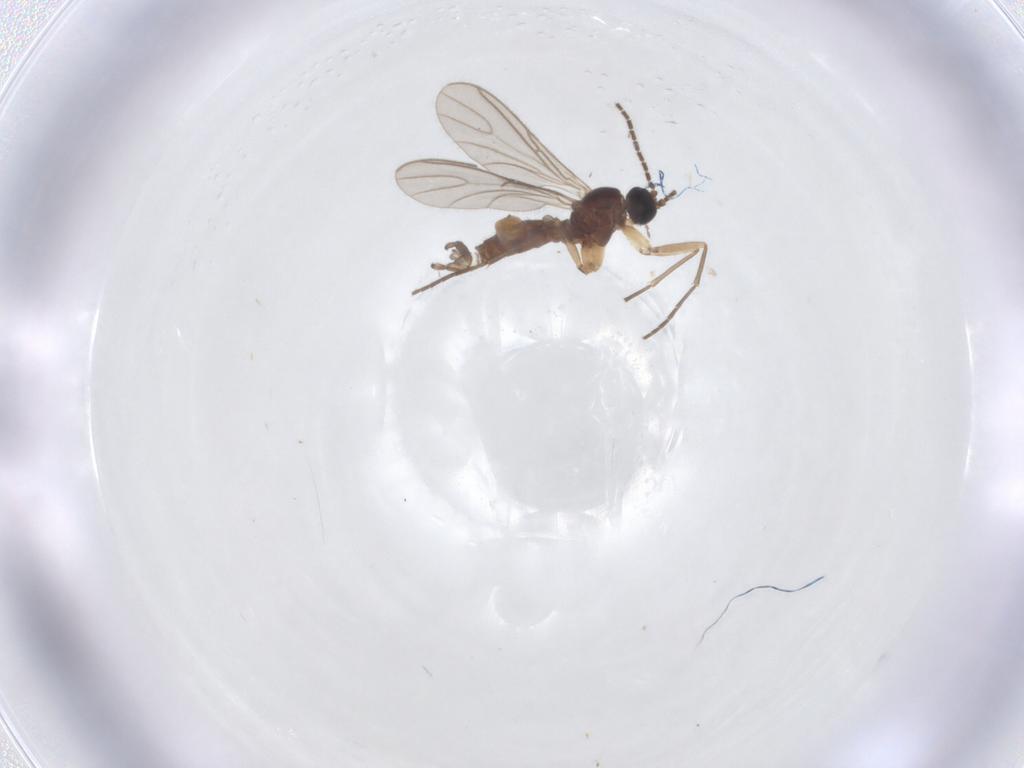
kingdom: Animalia
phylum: Arthropoda
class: Insecta
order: Diptera
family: Sciaridae
